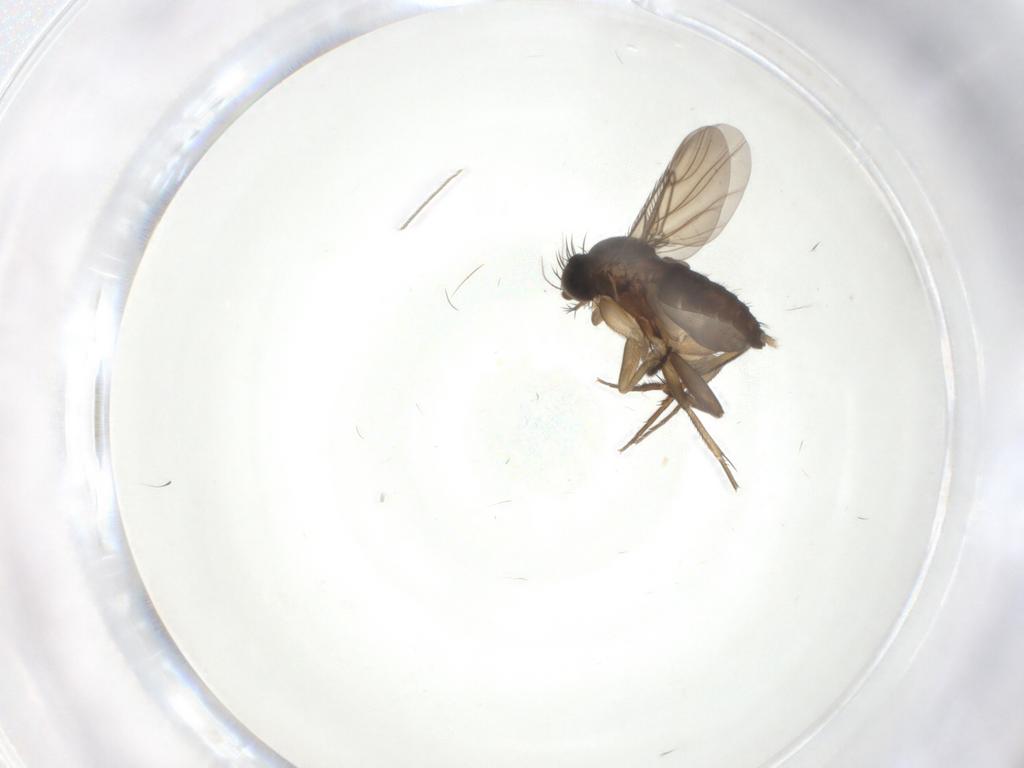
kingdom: Animalia
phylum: Arthropoda
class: Insecta
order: Diptera
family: Phoridae
